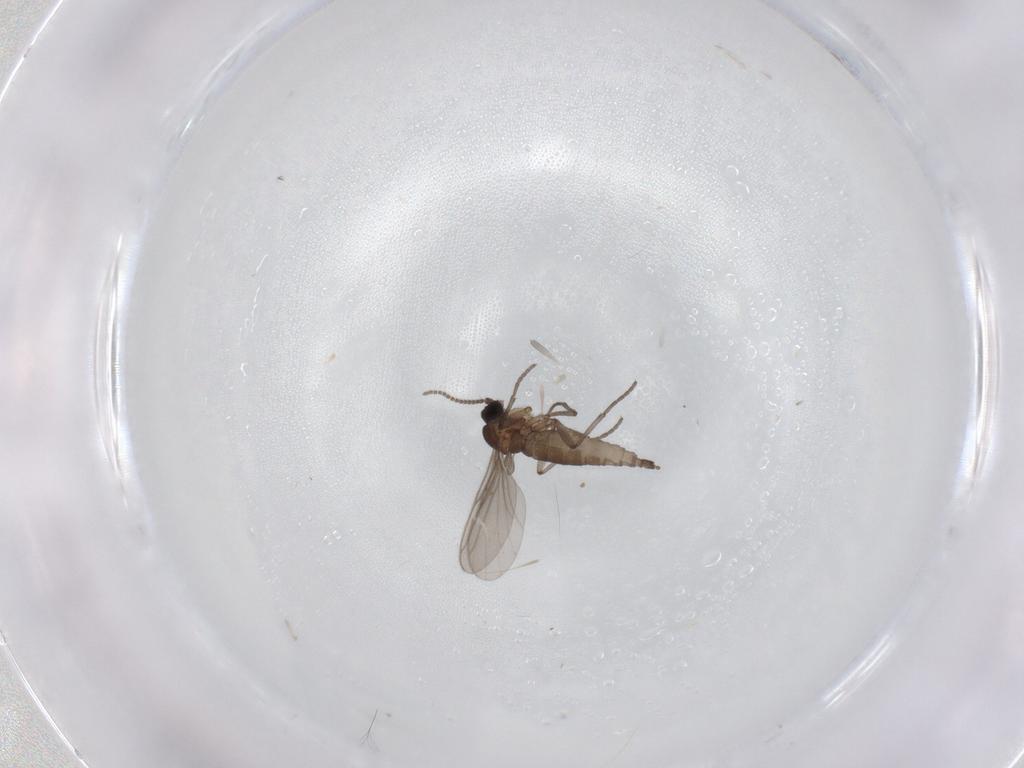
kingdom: Animalia
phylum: Arthropoda
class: Insecta
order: Diptera
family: Sciaridae
